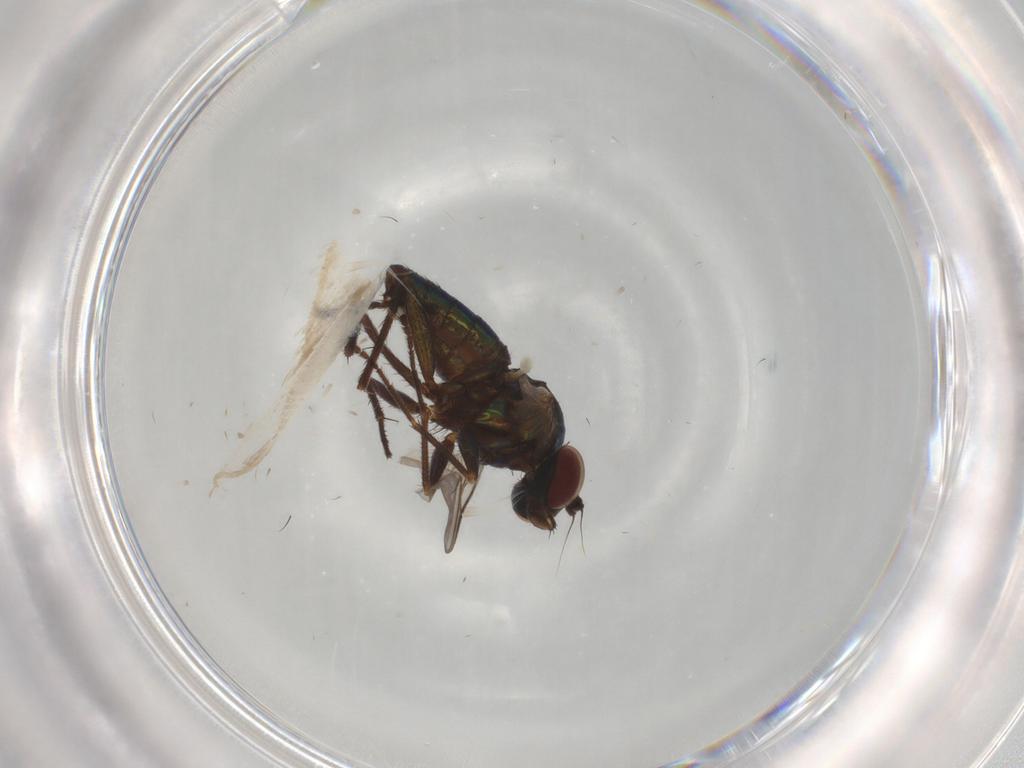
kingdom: Animalia
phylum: Arthropoda
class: Insecta
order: Diptera
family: Dolichopodidae
